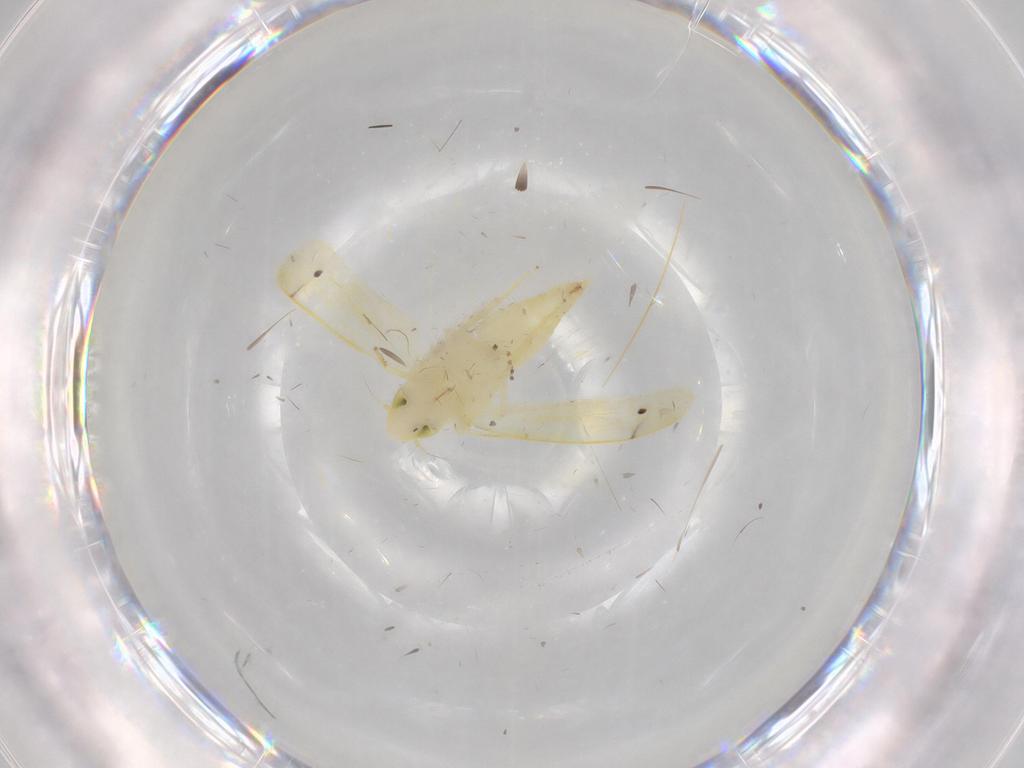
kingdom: Animalia
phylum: Arthropoda
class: Insecta
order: Hemiptera
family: Cicadellidae
